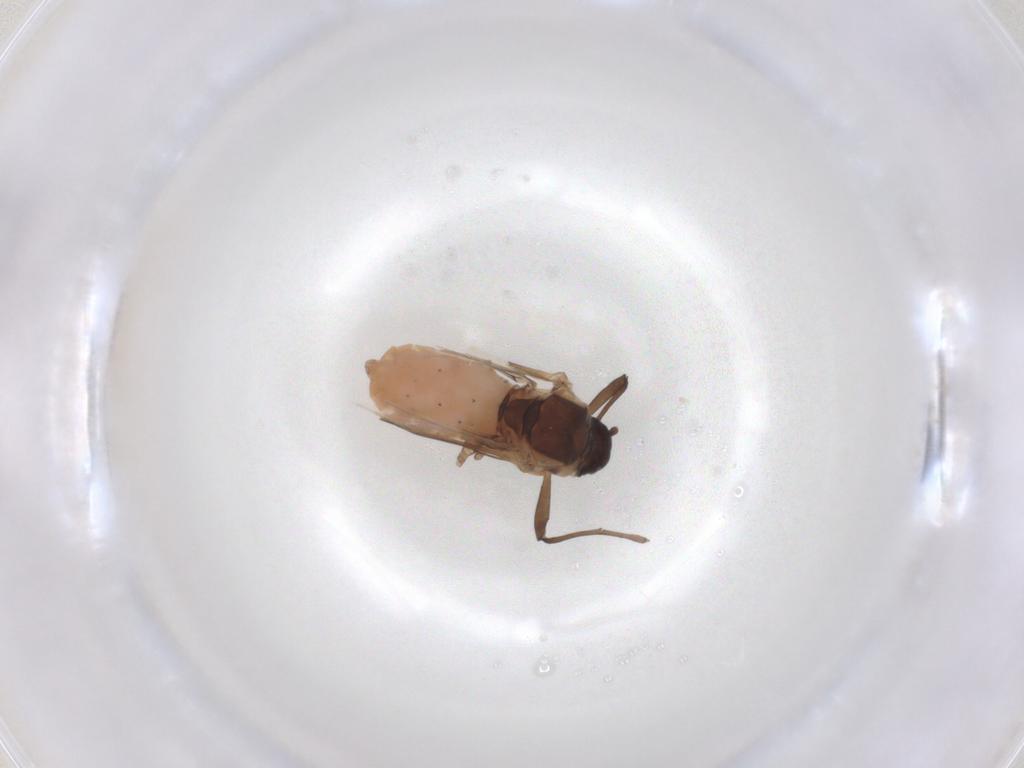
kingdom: Animalia
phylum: Arthropoda
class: Insecta
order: Hemiptera
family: Aphididae
